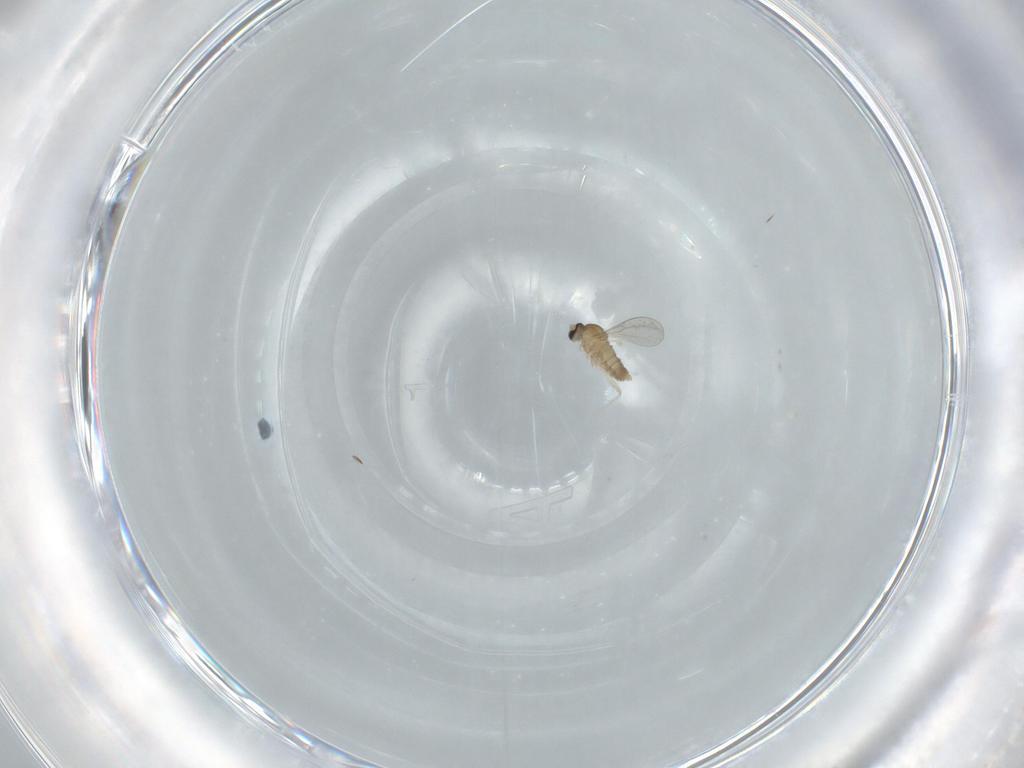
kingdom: Animalia
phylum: Arthropoda
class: Insecta
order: Diptera
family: Cecidomyiidae
